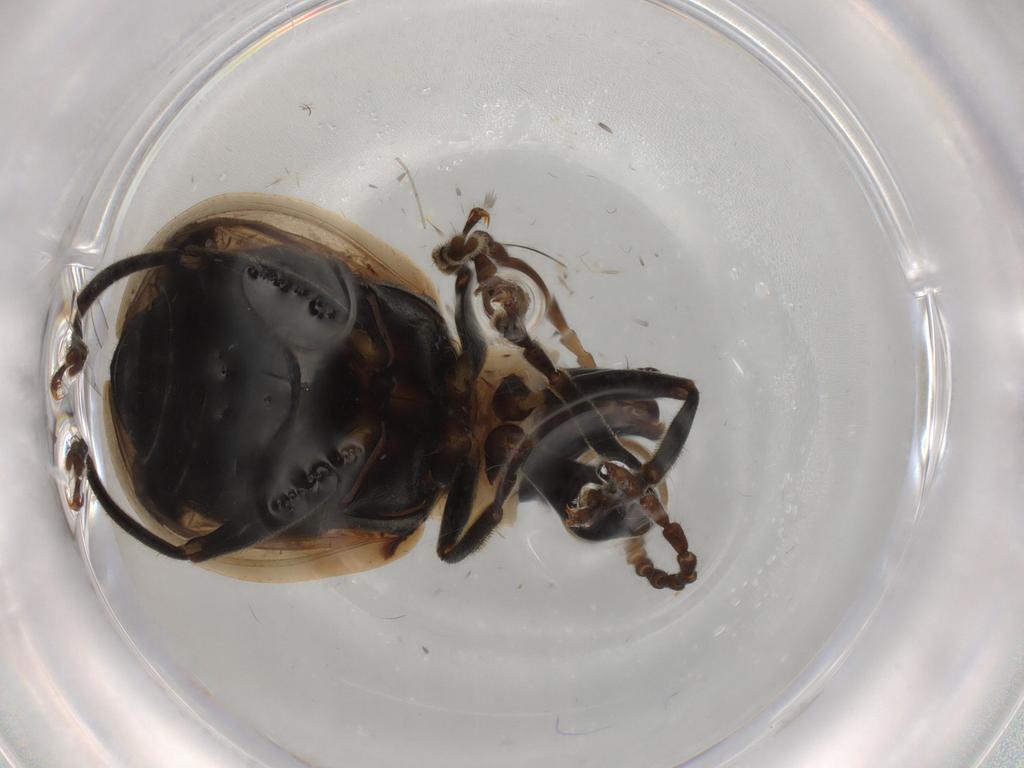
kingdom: Animalia
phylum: Arthropoda
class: Insecta
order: Coleoptera
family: Chrysomelidae
